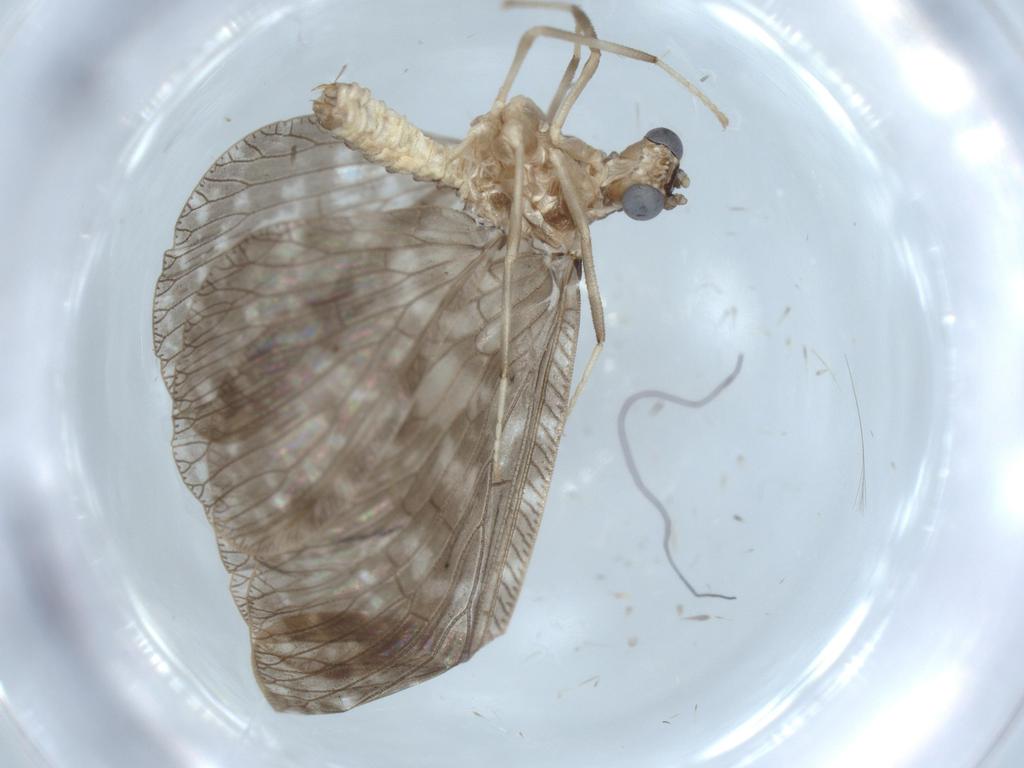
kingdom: Animalia
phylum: Arthropoda
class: Insecta
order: Neuroptera
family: Dilaridae
